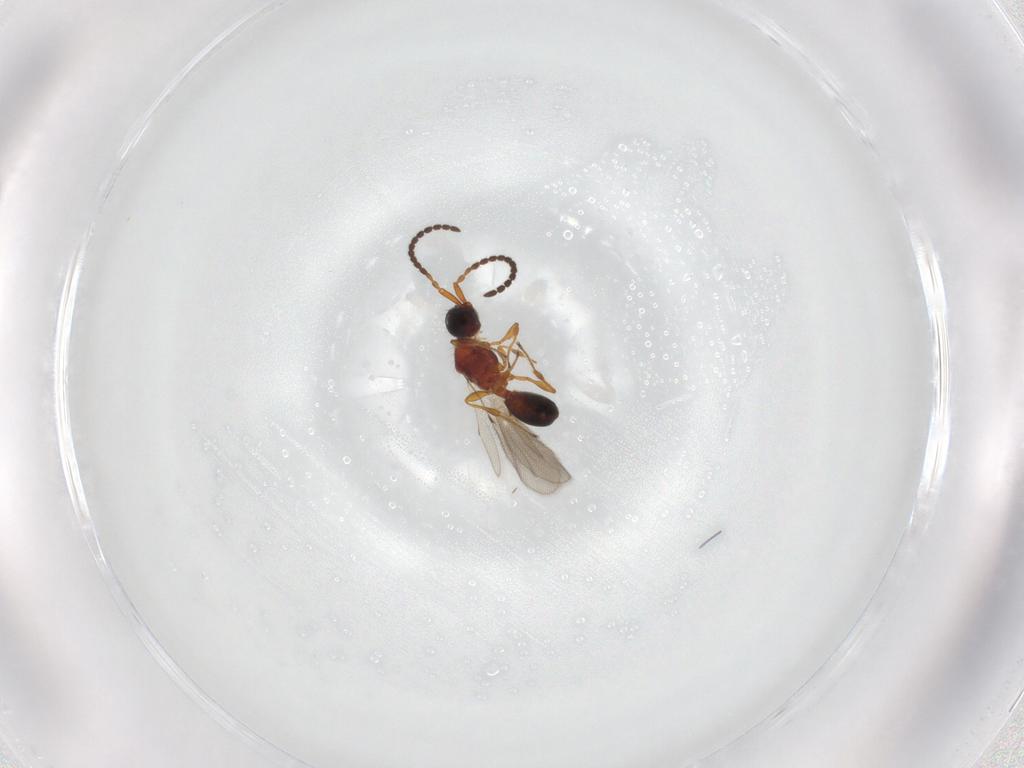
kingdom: Animalia
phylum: Arthropoda
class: Insecta
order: Hymenoptera
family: Diapriidae
